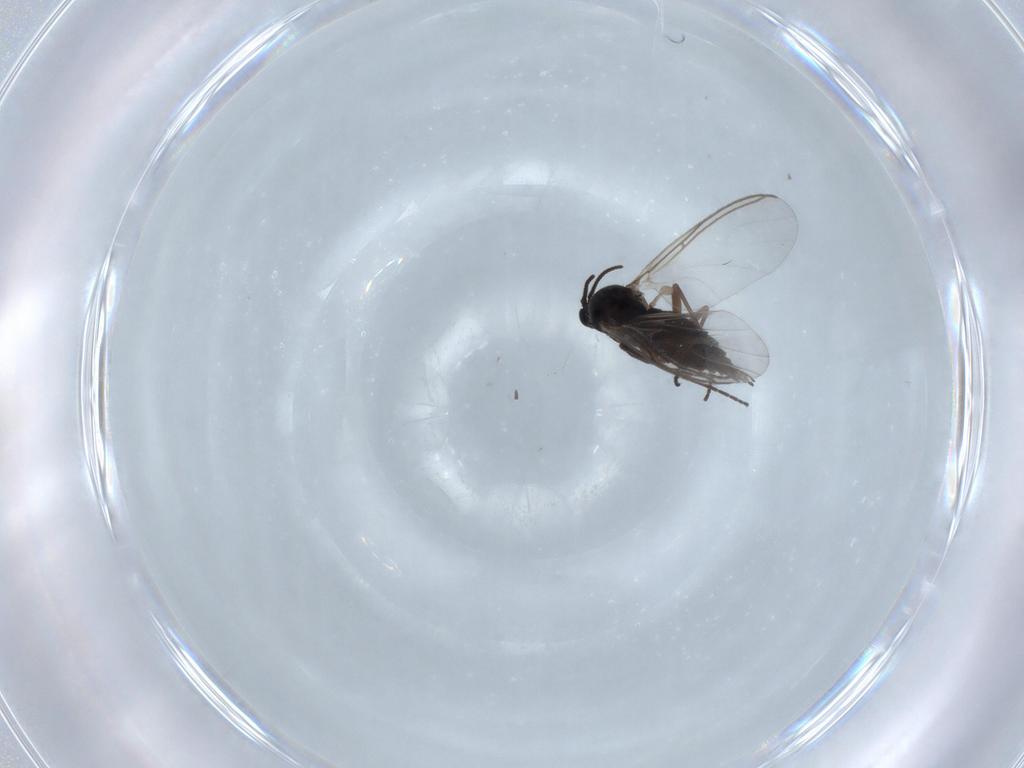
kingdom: Animalia
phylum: Arthropoda
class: Insecta
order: Diptera
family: Sciaridae
